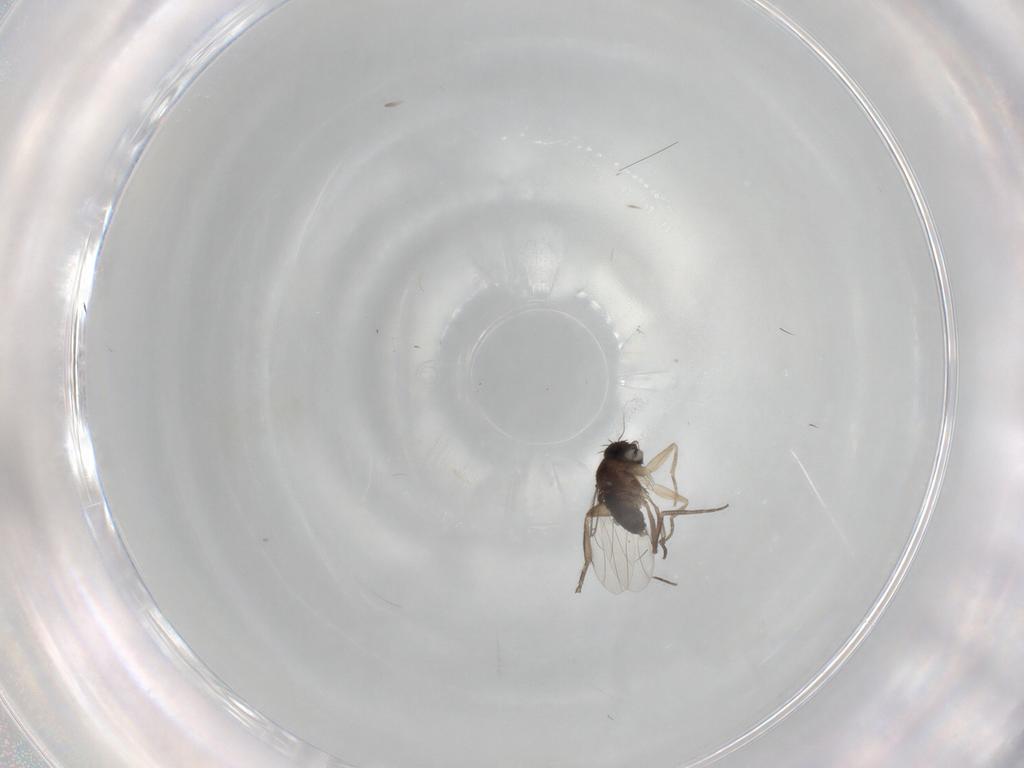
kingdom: Animalia
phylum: Arthropoda
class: Insecta
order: Diptera
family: Phoridae
